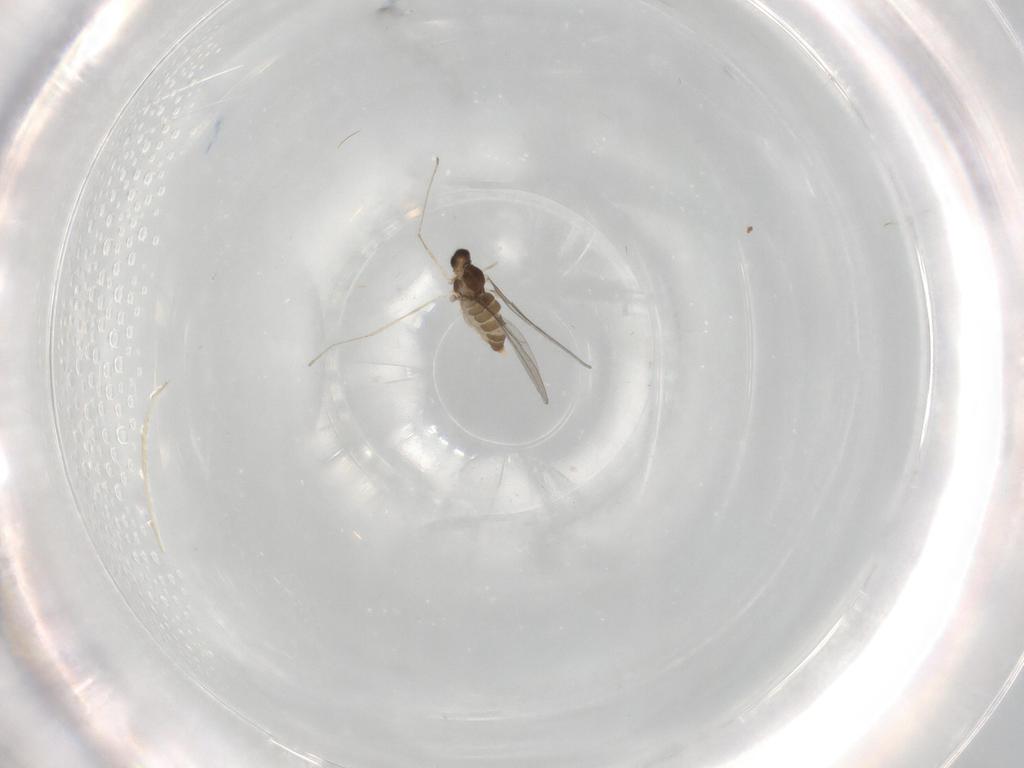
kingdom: Animalia
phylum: Arthropoda
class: Insecta
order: Diptera
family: Cecidomyiidae
